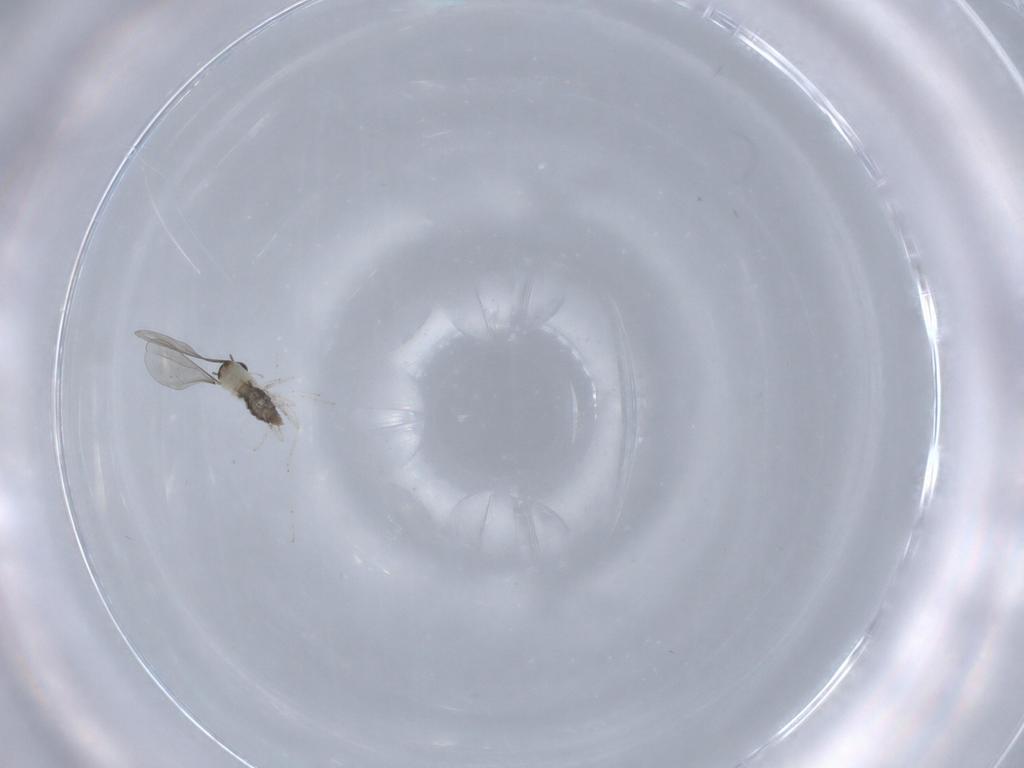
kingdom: Animalia
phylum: Arthropoda
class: Insecta
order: Diptera
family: Cecidomyiidae
